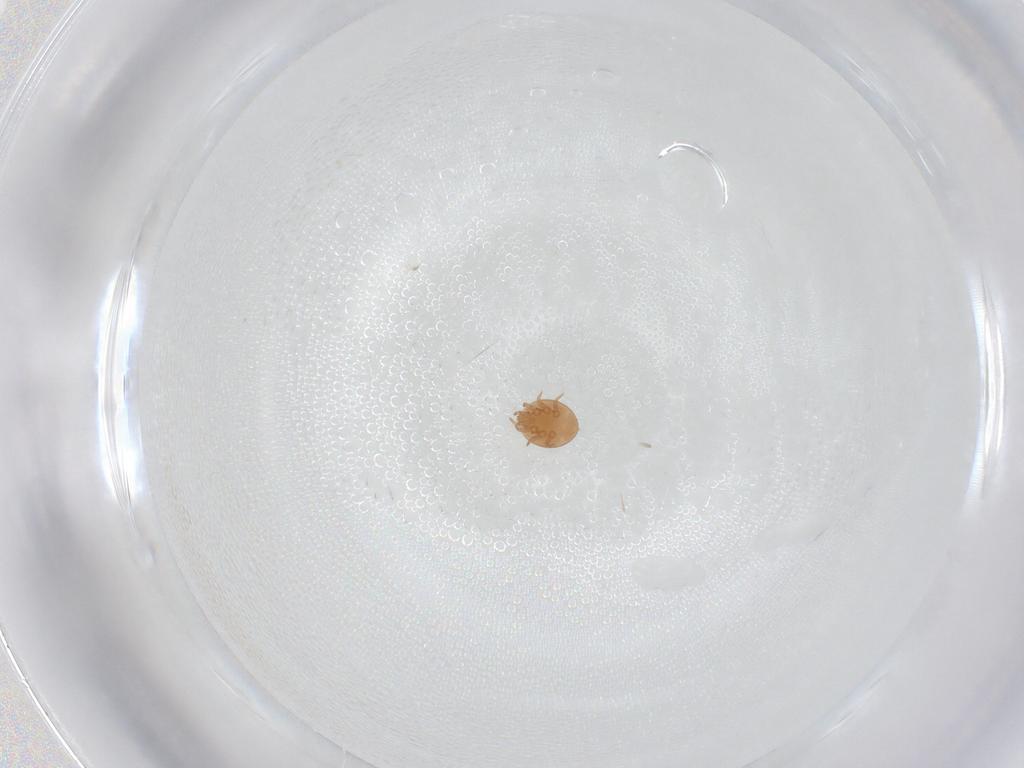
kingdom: Animalia
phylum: Arthropoda
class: Arachnida
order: Mesostigmata
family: Trematuridae
